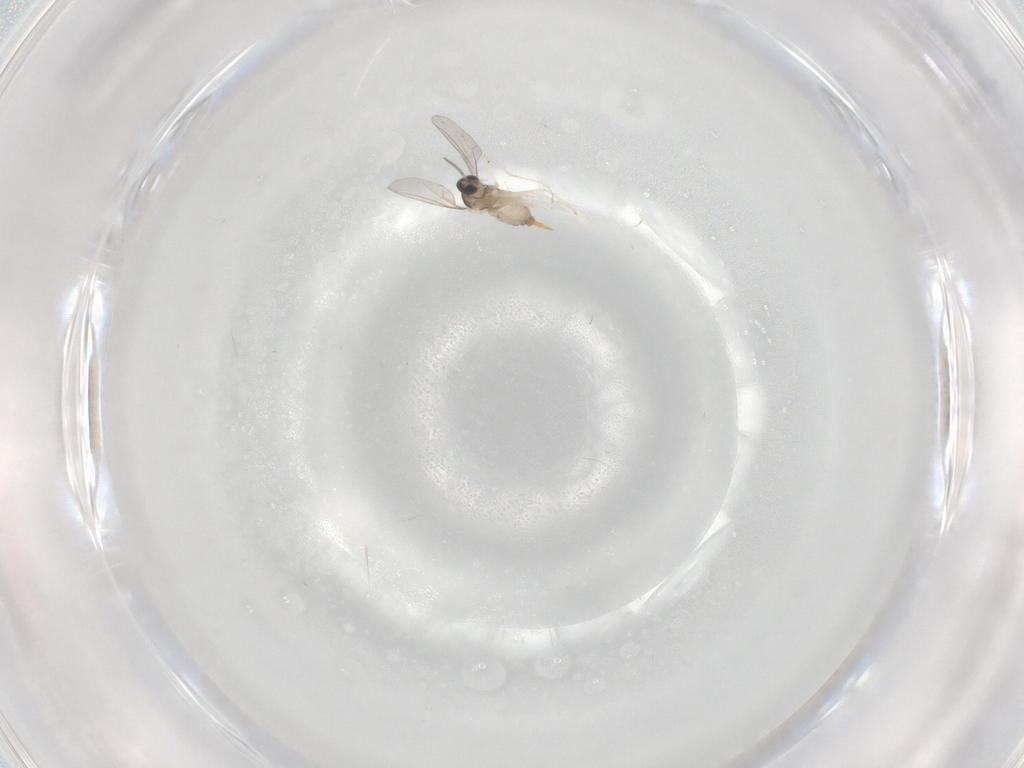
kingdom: Animalia
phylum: Arthropoda
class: Insecta
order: Diptera
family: Cecidomyiidae
